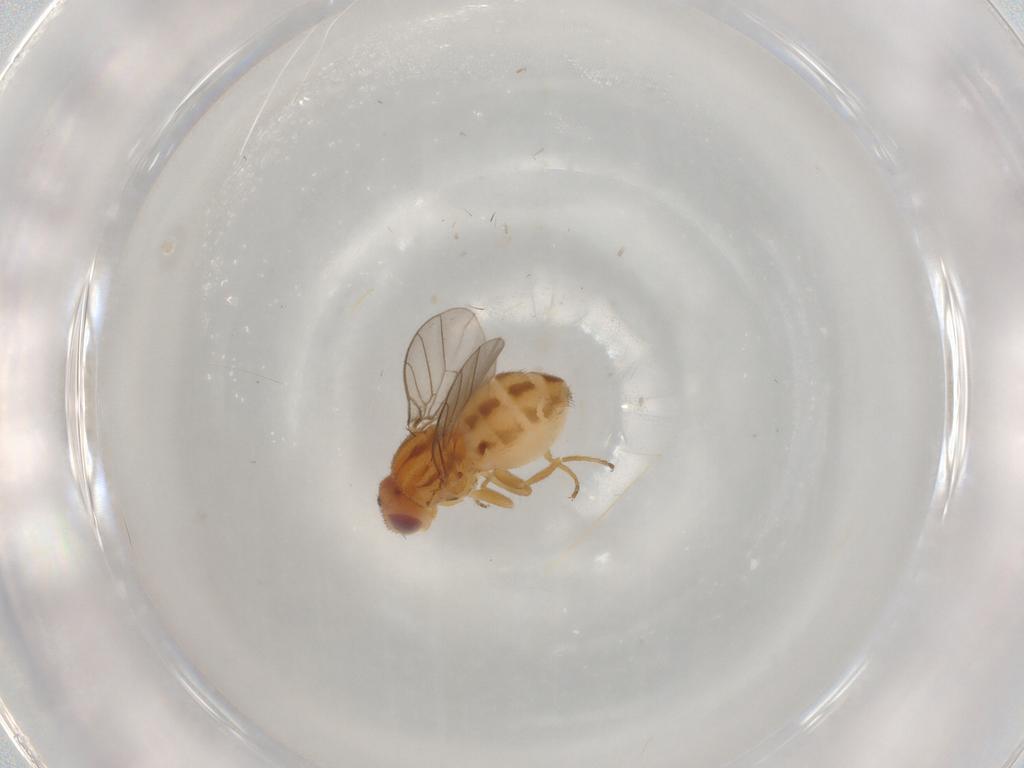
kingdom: Animalia
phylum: Arthropoda
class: Insecta
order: Diptera
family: Chloropidae
